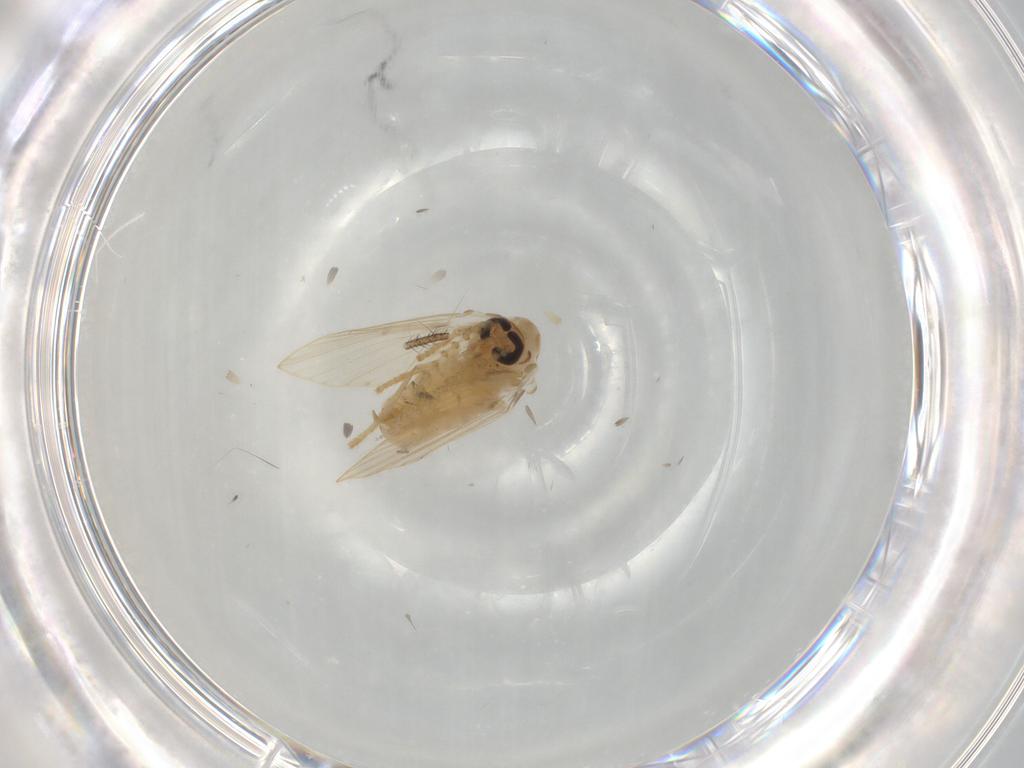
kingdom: Animalia
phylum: Arthropoda
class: Insecta
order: Diptera
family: Psychodidae
